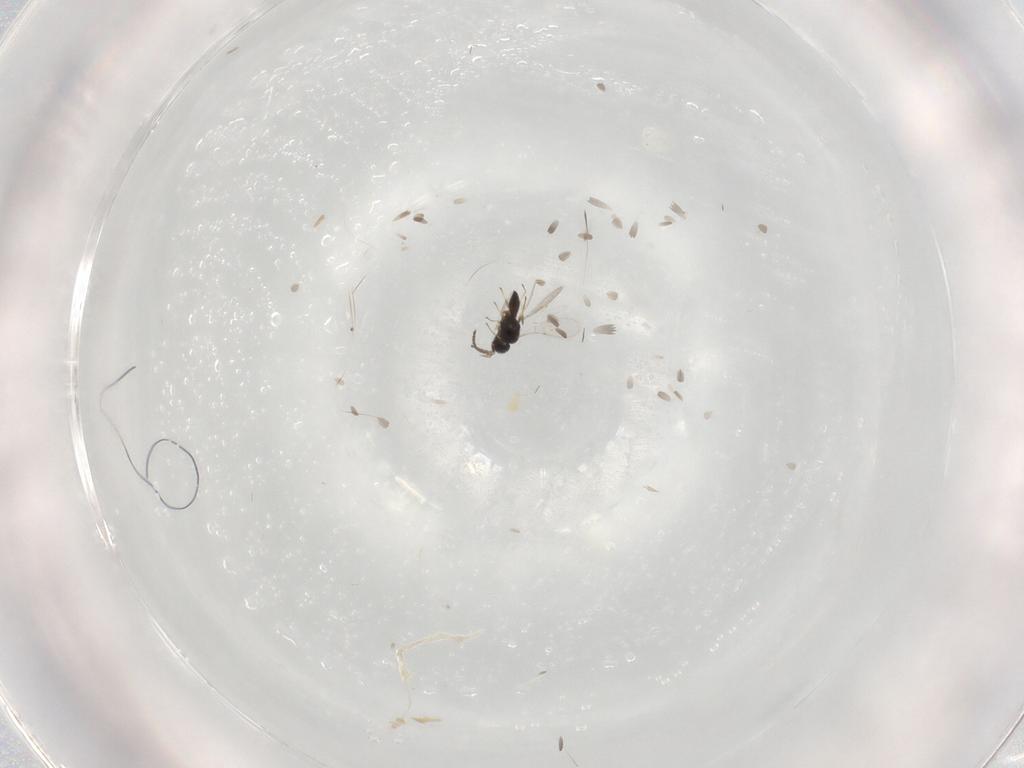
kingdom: Animalia
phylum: Arthropoda
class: Insecta
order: Hymenoptera
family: Scelionidae
